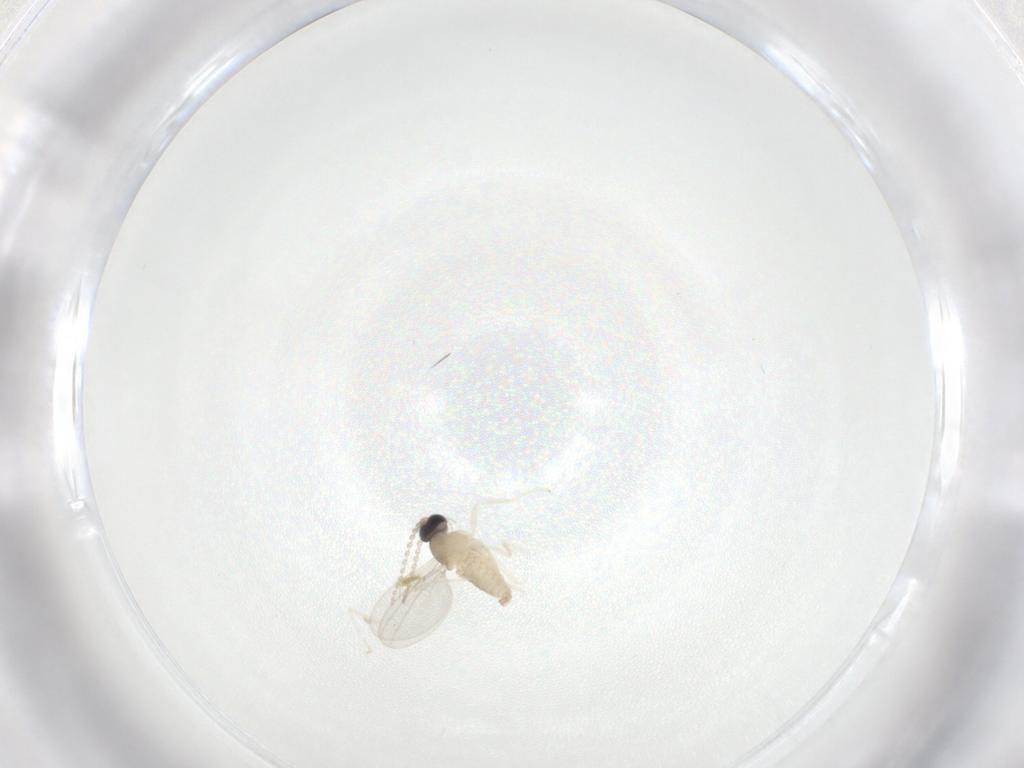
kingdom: Animalia
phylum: Arthropoda
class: Insecta
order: Diptera
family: Cecidomyiidae
